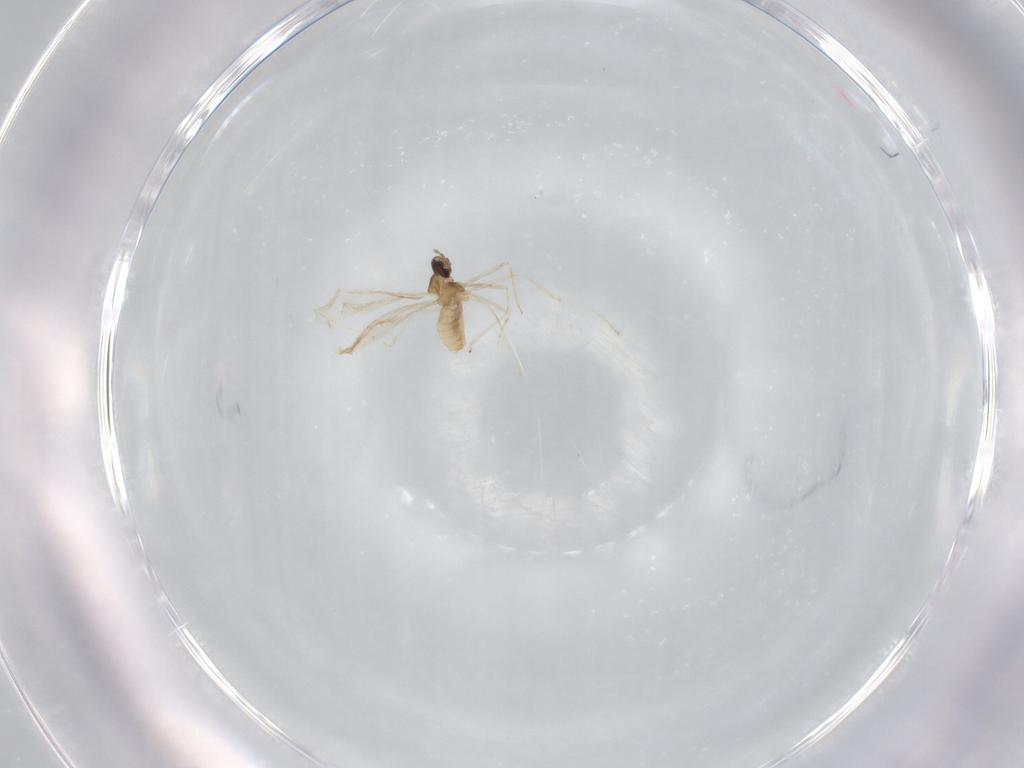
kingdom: Animalia
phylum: Arthropoda
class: Insecta
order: Diptera
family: Cecidomyiidae
